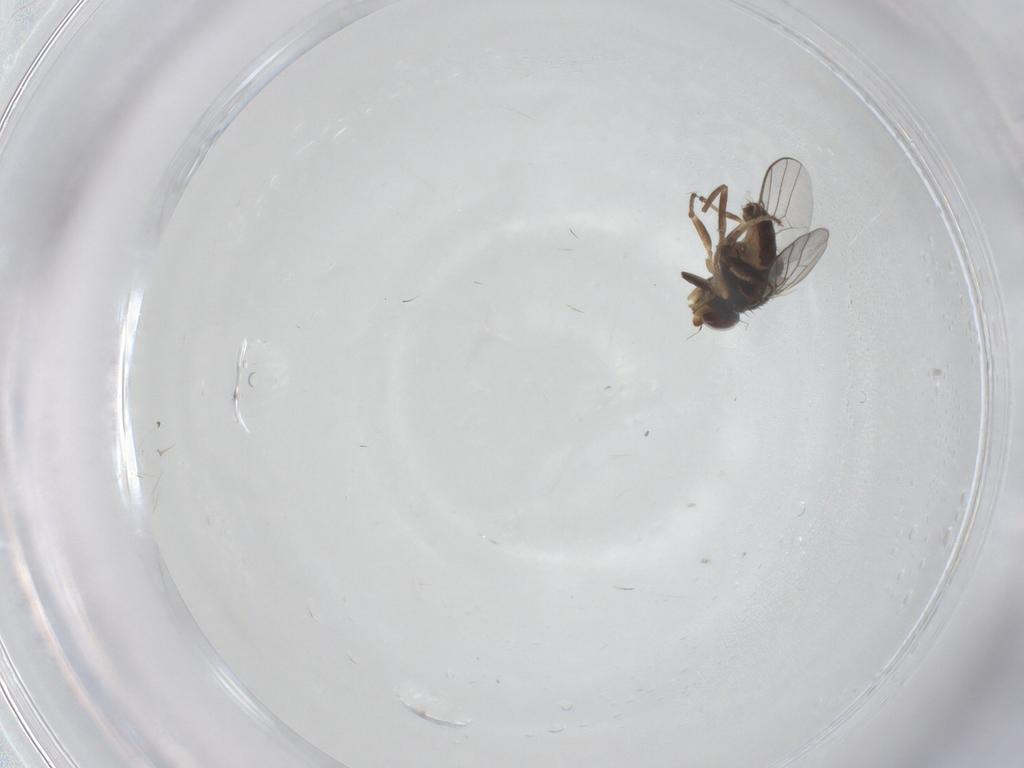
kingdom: Animalia
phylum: Arthropoda
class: Insecta
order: Diptera
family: Chloropidae
